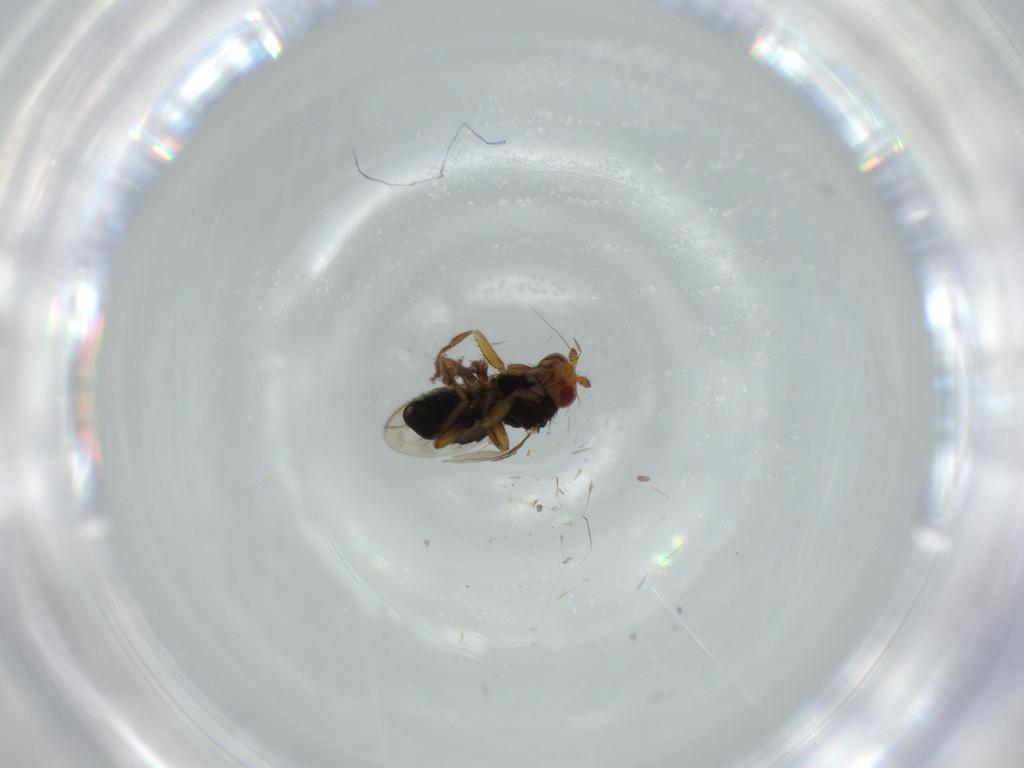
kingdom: Animalia
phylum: Arthropoda
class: Insecta
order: Diptera
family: Sphaeroceridae
